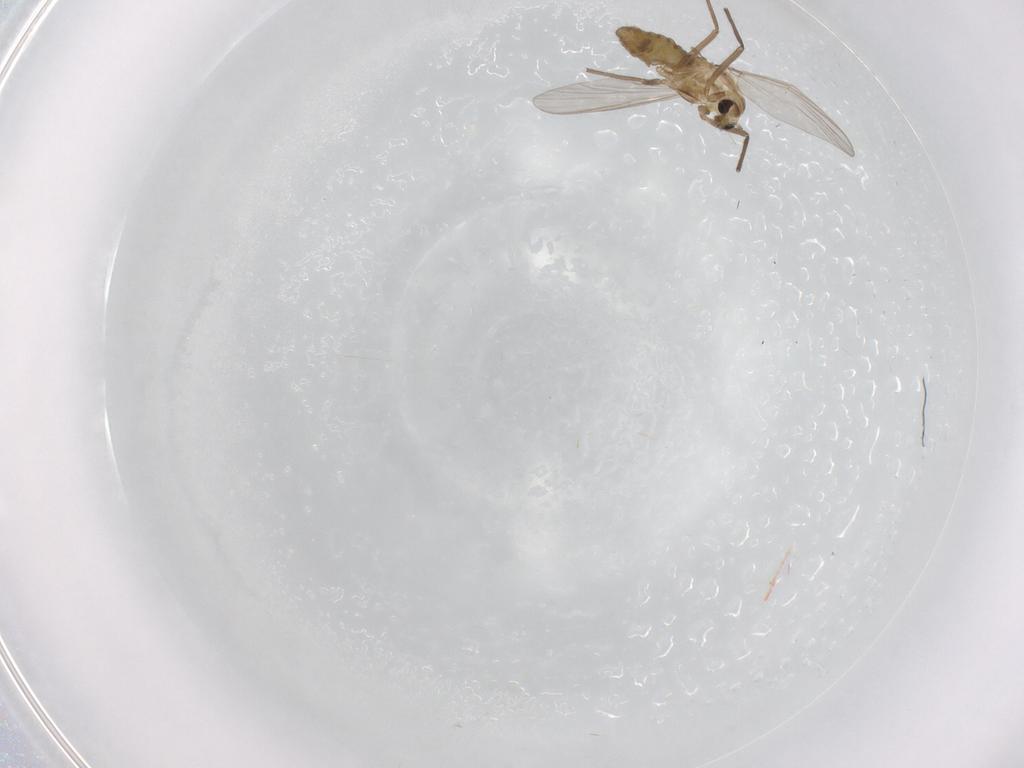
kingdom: Animalia
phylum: Arthropoda
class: Insecta
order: Diptera
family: Chironomidae
